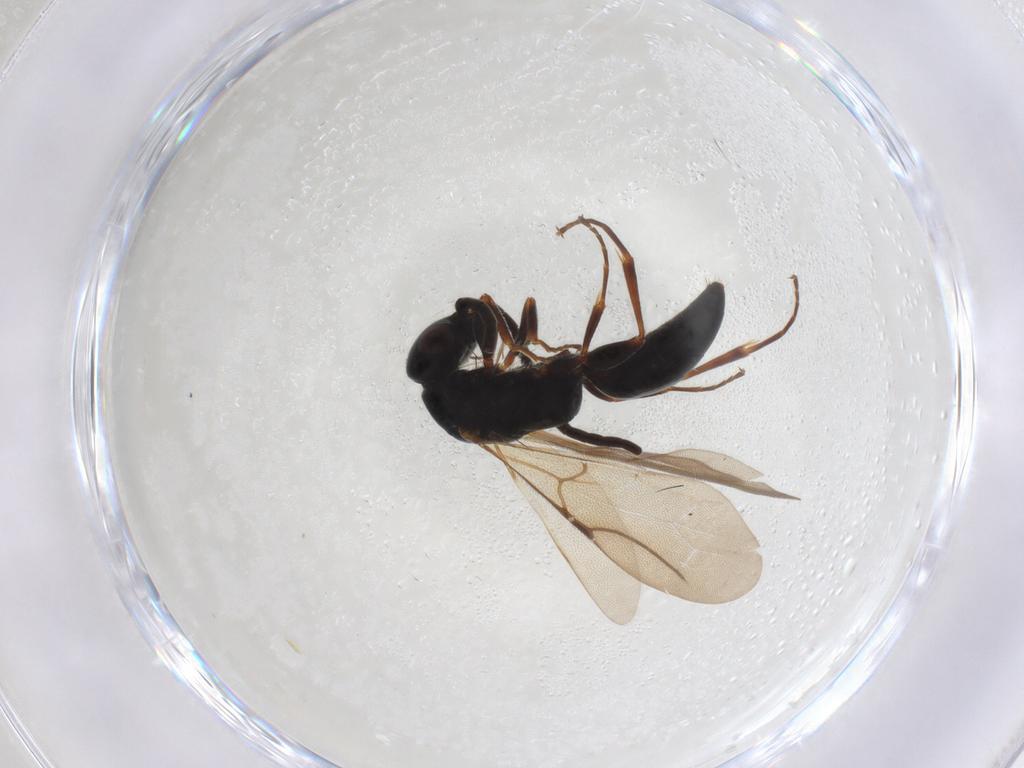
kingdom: Animalia
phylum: Arthropoda
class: Insecta
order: Hymenoptera
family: Bethylidae
